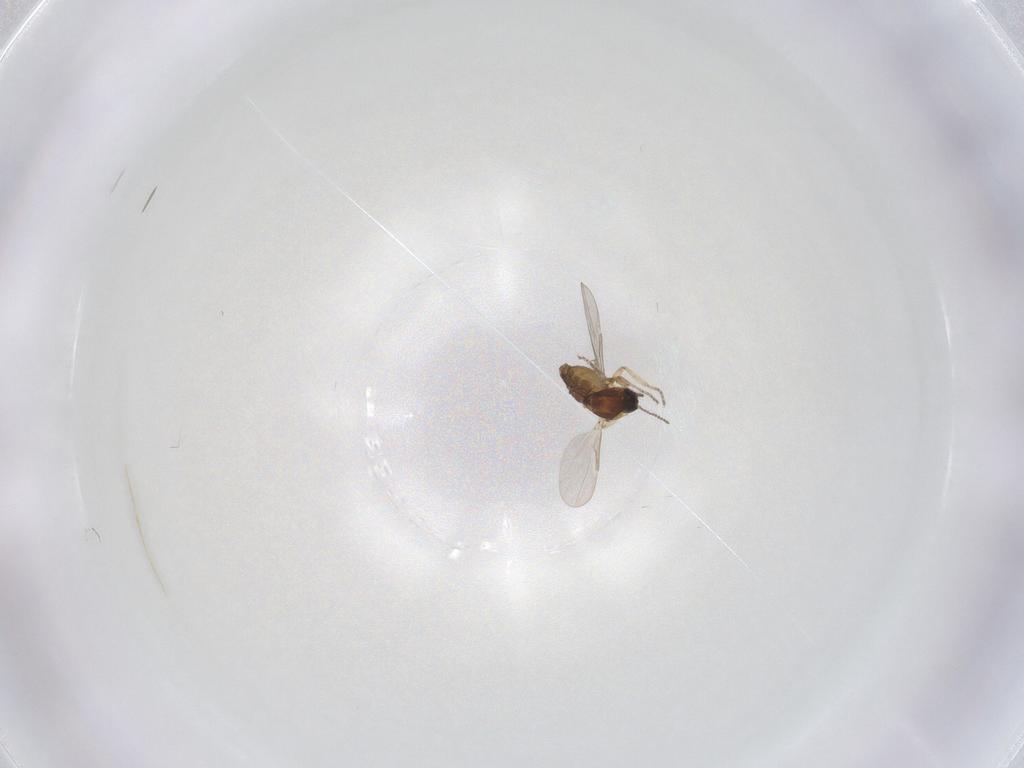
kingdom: Animalia
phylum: Arthropoda
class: Insecta
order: Diptera
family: Ceratopogonidae
